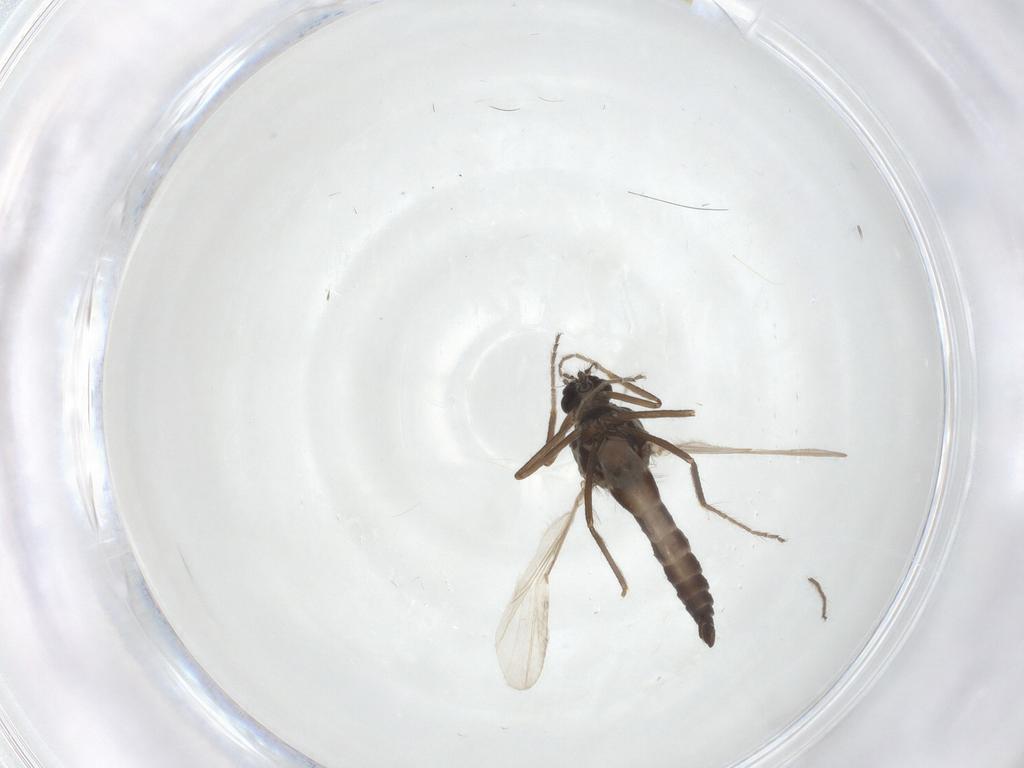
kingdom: Animalia
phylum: Arthropoda
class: Insecta
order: Diptera
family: Ceratopogonidae
